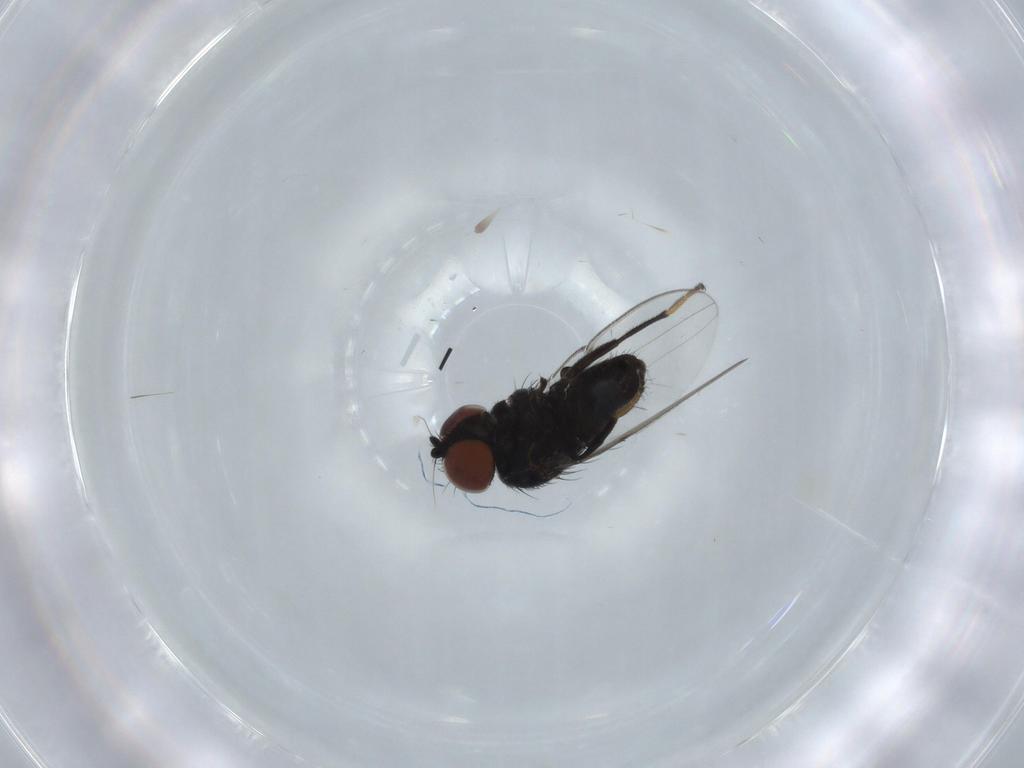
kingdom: Animalia
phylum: Arthropoda
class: Insecta
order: Diptera
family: Milichiidae
